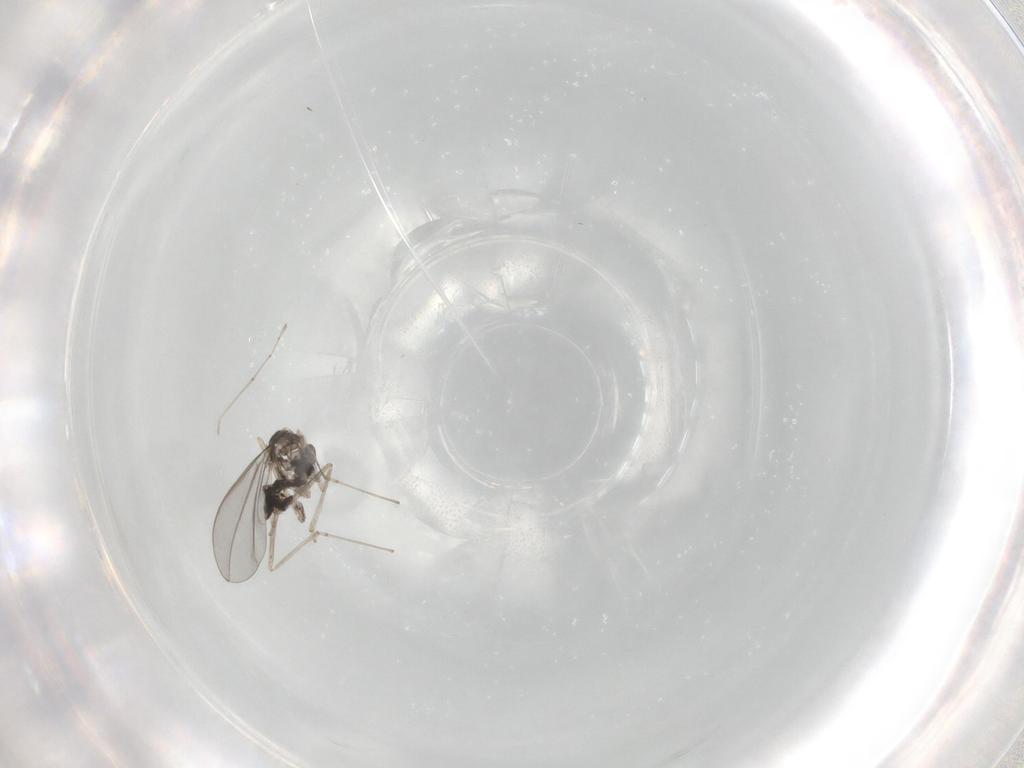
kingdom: Animalia
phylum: Arthropoda
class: Insecta
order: Diptera
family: Cecidomyiidae
